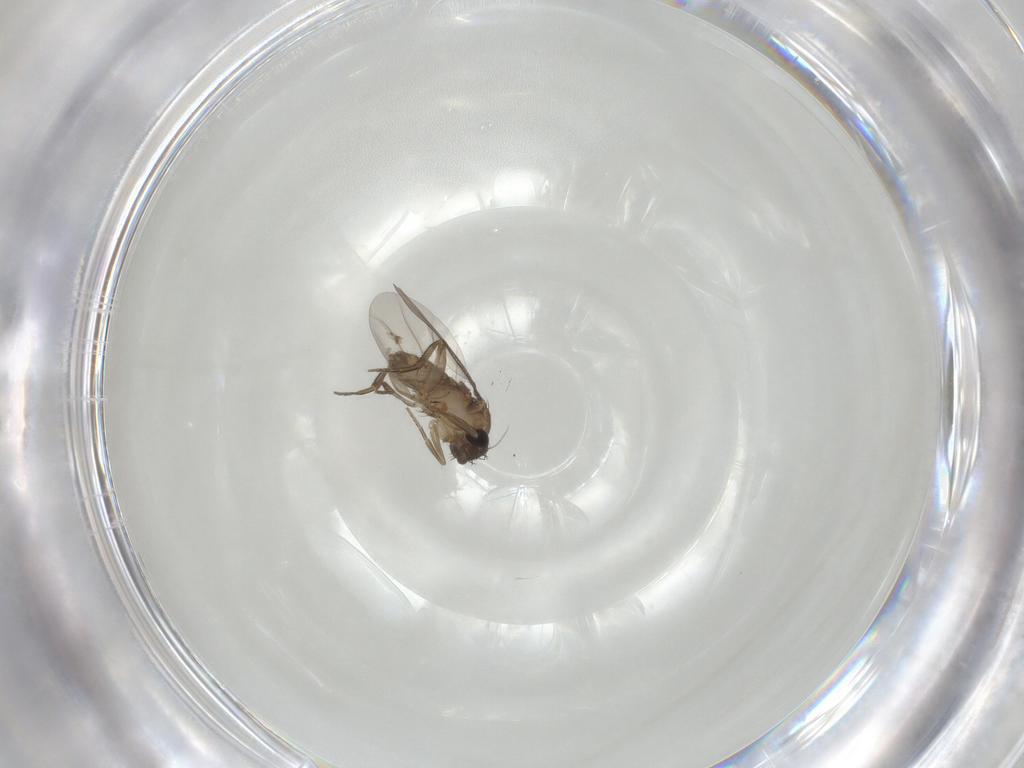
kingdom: Animalia
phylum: Arthropoda
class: Insecta
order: Diptera
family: Phoridae
